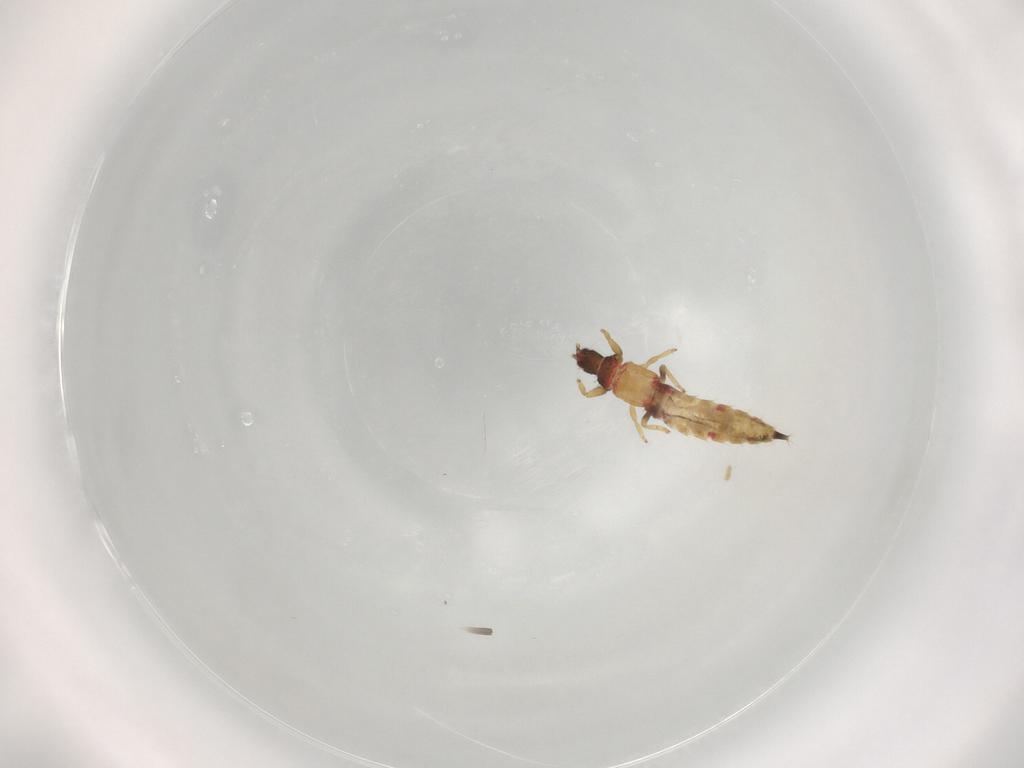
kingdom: Animalia
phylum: Arthropoda
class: Insecta
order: Thysanoptera
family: Phlaeothripidae
